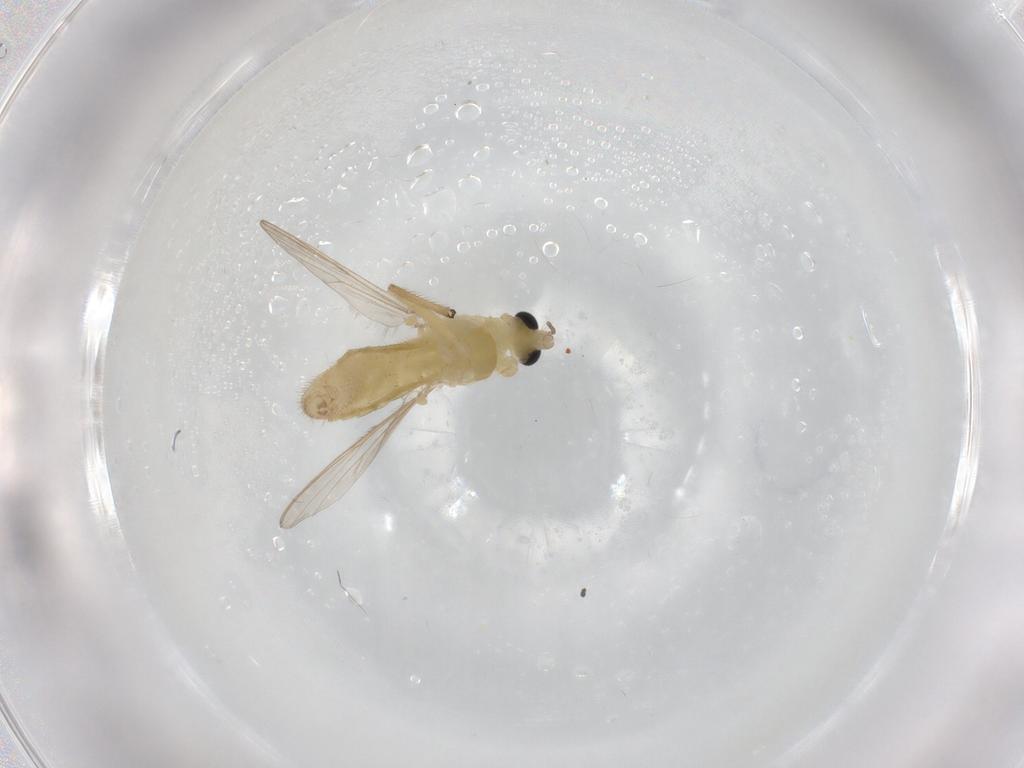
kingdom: Animalia
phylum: Arthropoda
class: Insecta
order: Diptera
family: Chironomidae
